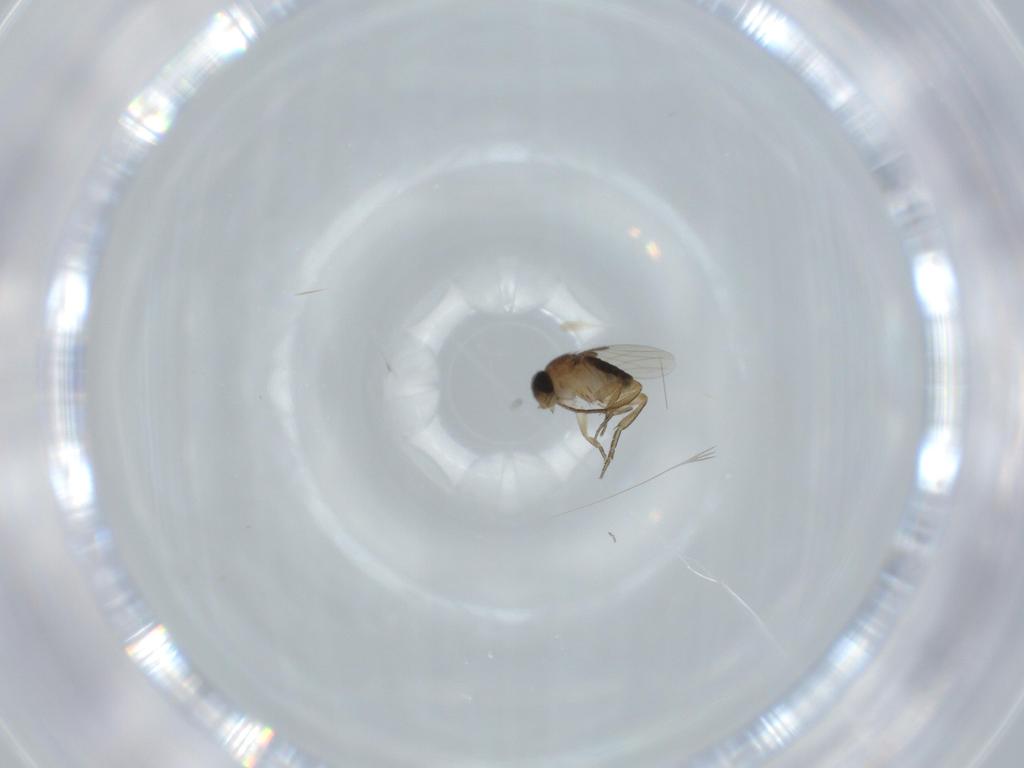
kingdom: Animalia
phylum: Arthropoda
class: Insecta
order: Diptera
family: Phoridae
